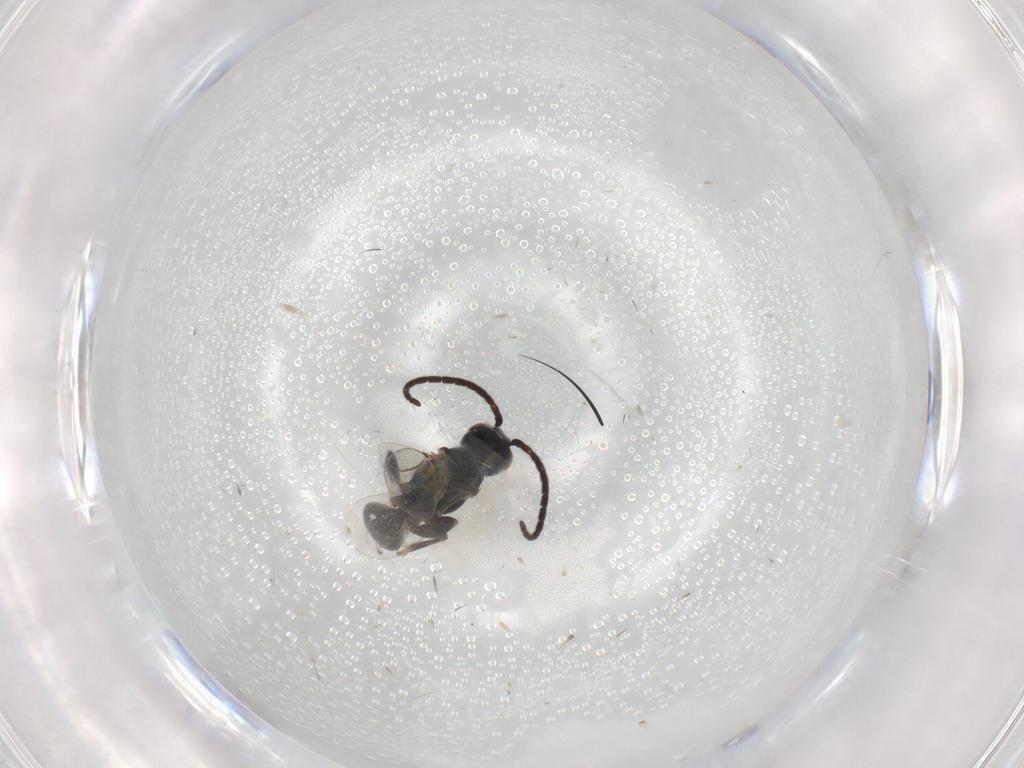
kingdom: Animalia
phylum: Arthropoda
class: Insecta
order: Hymenoptera
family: Bethylidae
